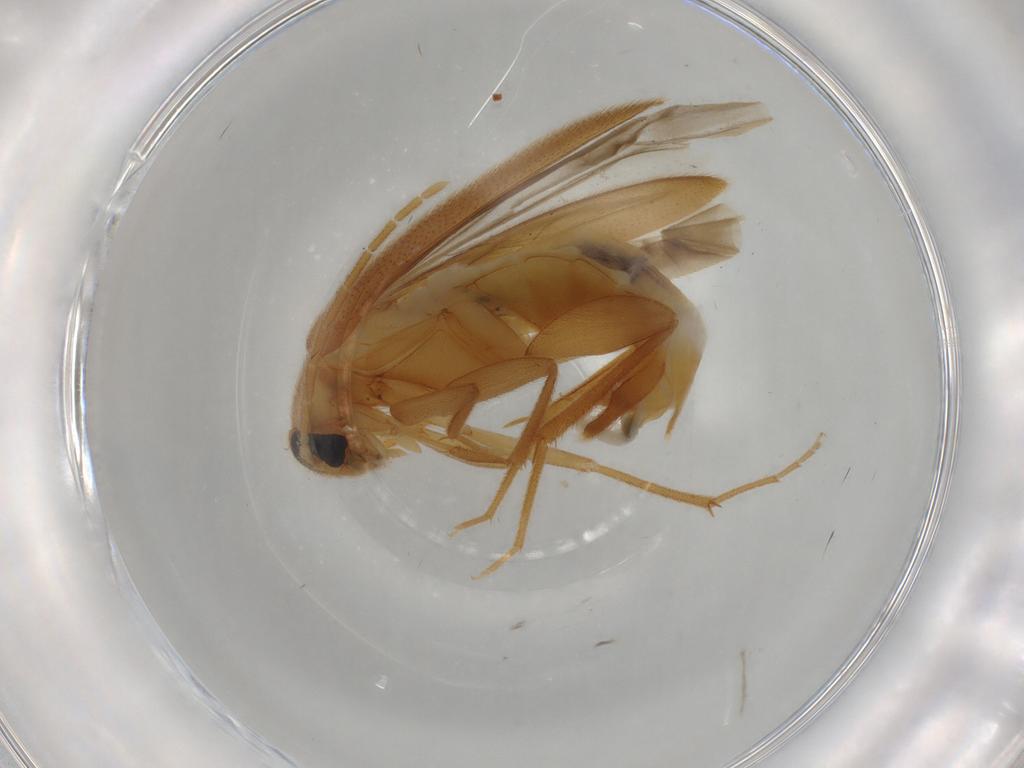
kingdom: Animalia
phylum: Arthropoda
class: Insecta
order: Coleoptera
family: Scraptiidae
